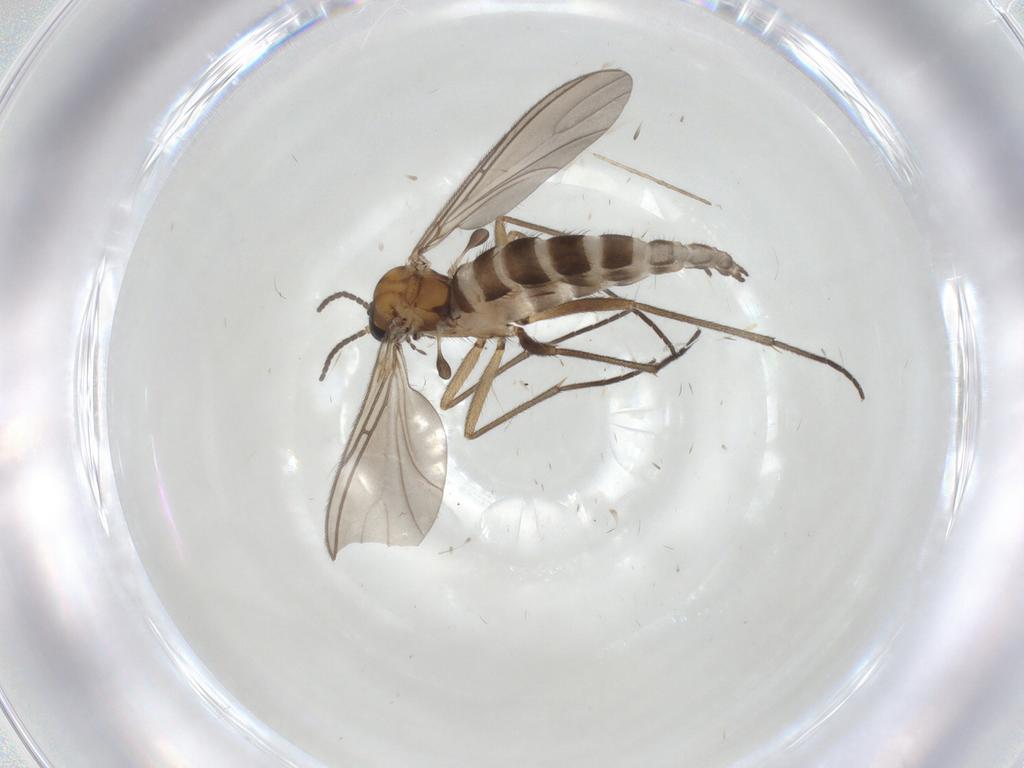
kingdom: Animalia
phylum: Arthropoda
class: Insecta
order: Diptera
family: Sciaridae
